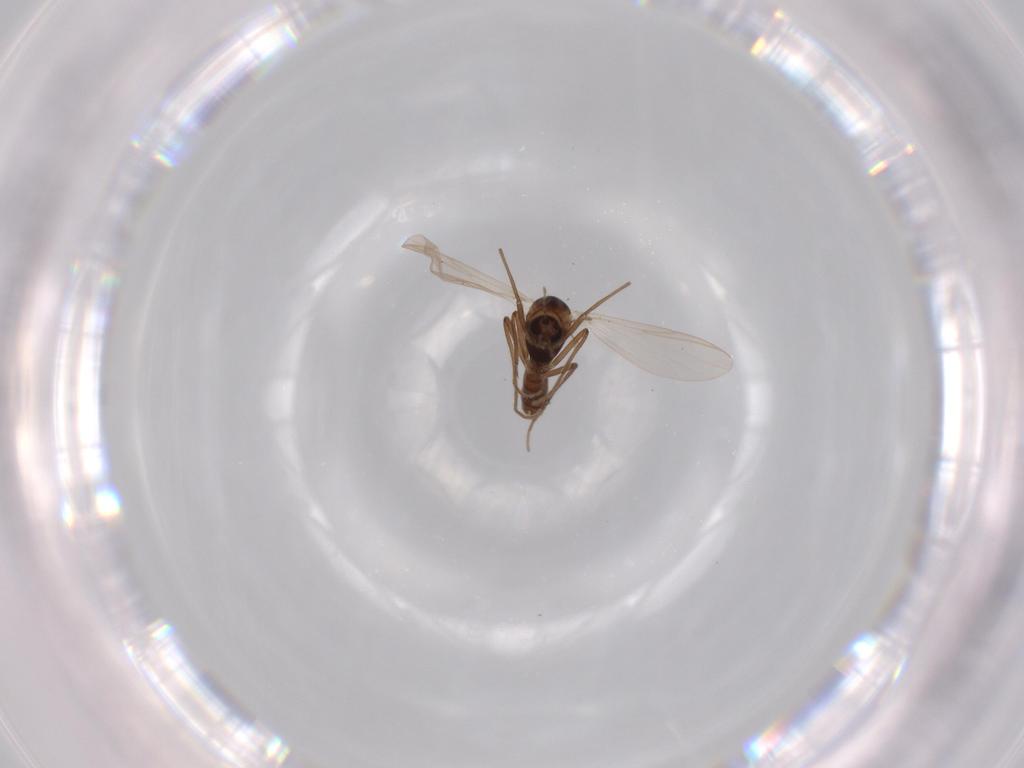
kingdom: Animalia
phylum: Arthropoda
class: Insecta
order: Diptera
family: Chironomidae
